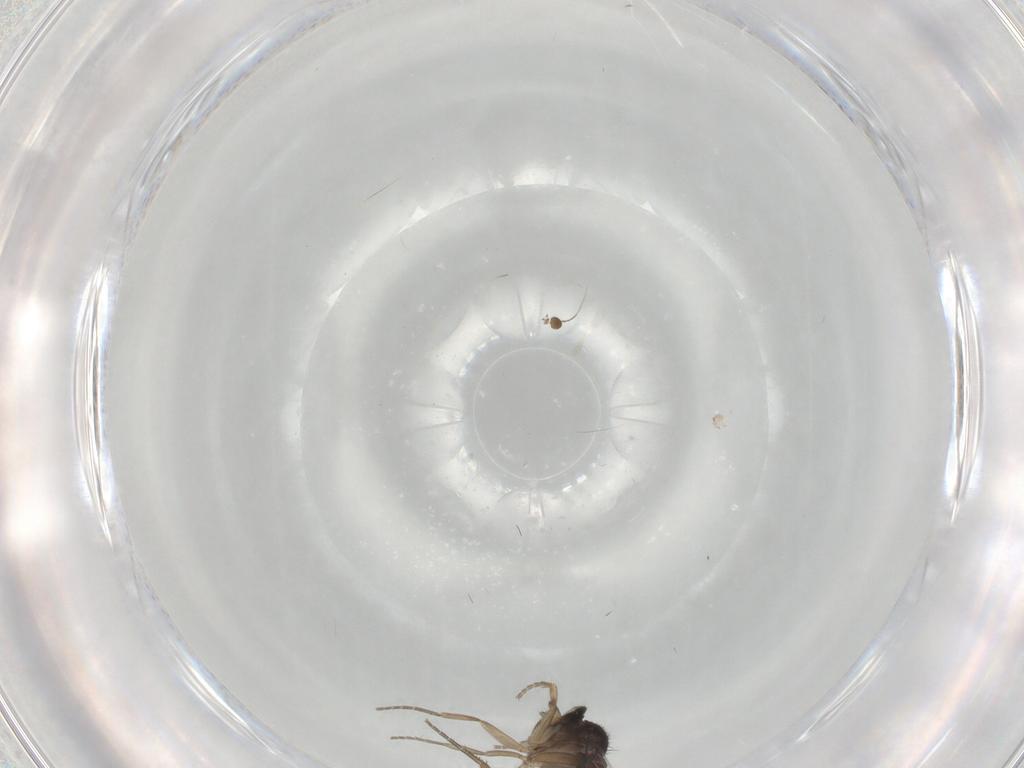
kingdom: Animalia
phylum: Arthropoda
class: Insecta
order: Diptera
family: Phoridae
